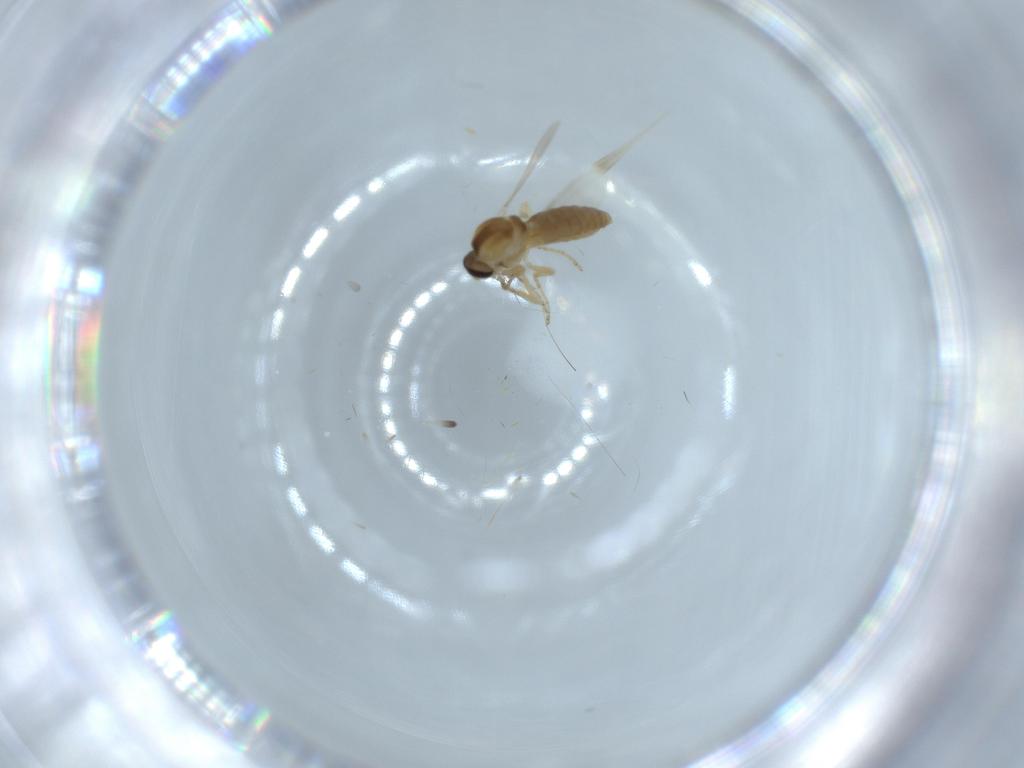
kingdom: Animalia
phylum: Arthropoda
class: Insecta
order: Diptera
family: Ceratopogonidae
